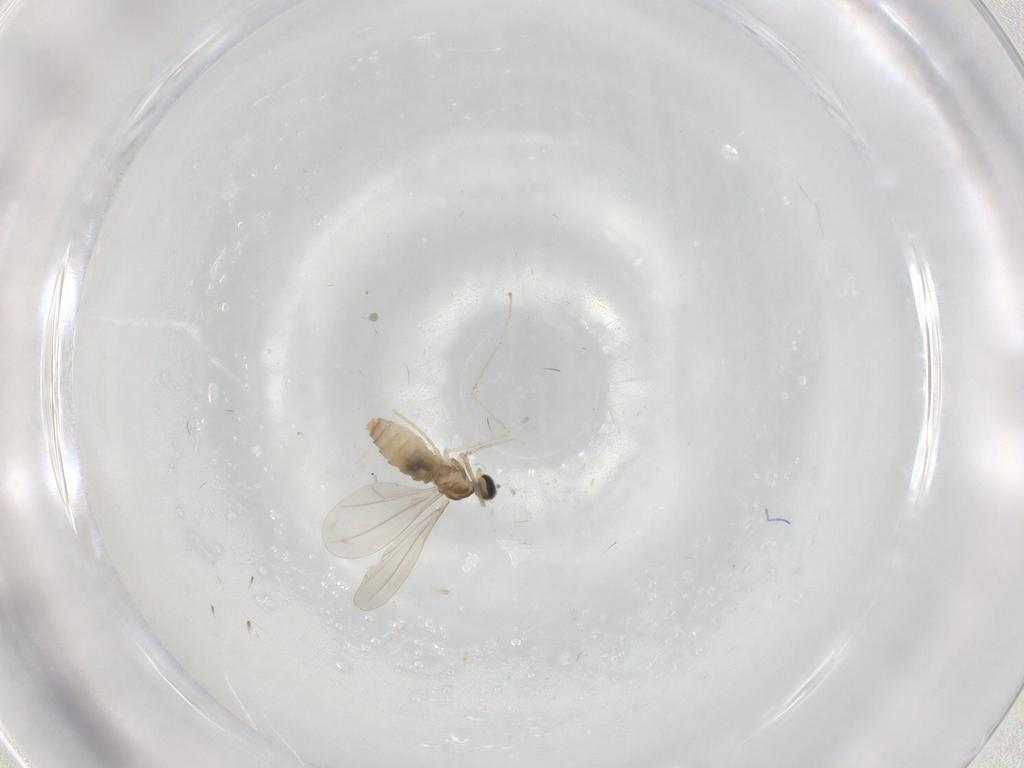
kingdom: Animalia
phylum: Arthropoda
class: Insecta
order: Diptera
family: Cecidomyiidae
